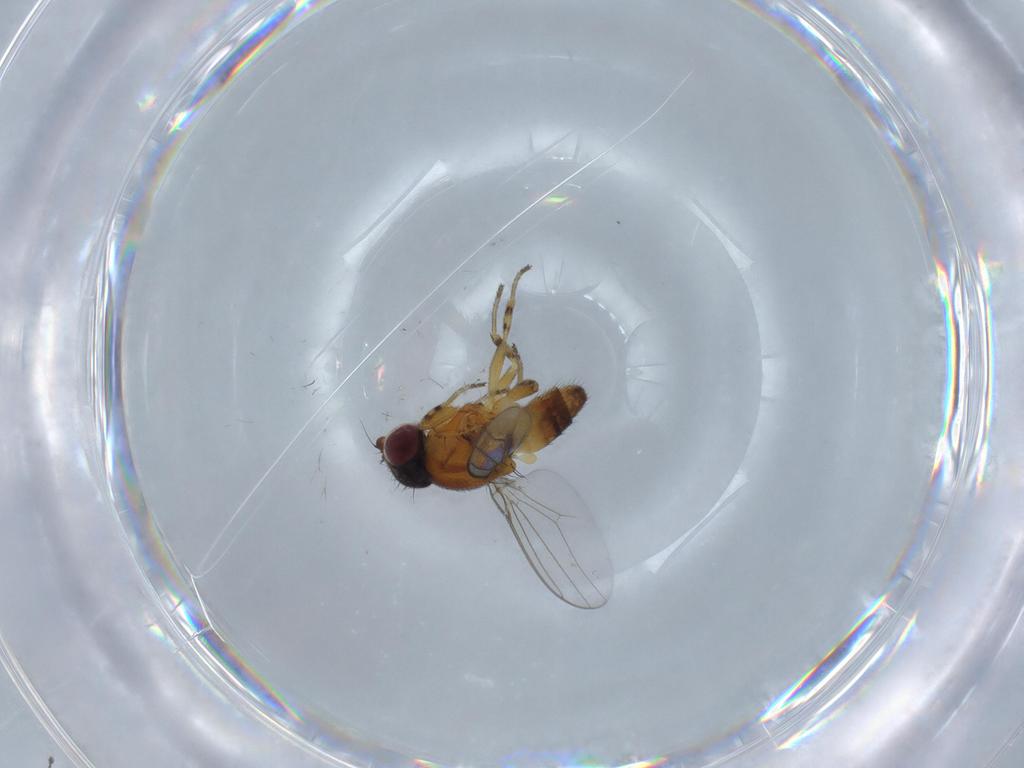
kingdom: Animalia
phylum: Arthropoda
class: Insecta
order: Diptera
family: Chloropidae
